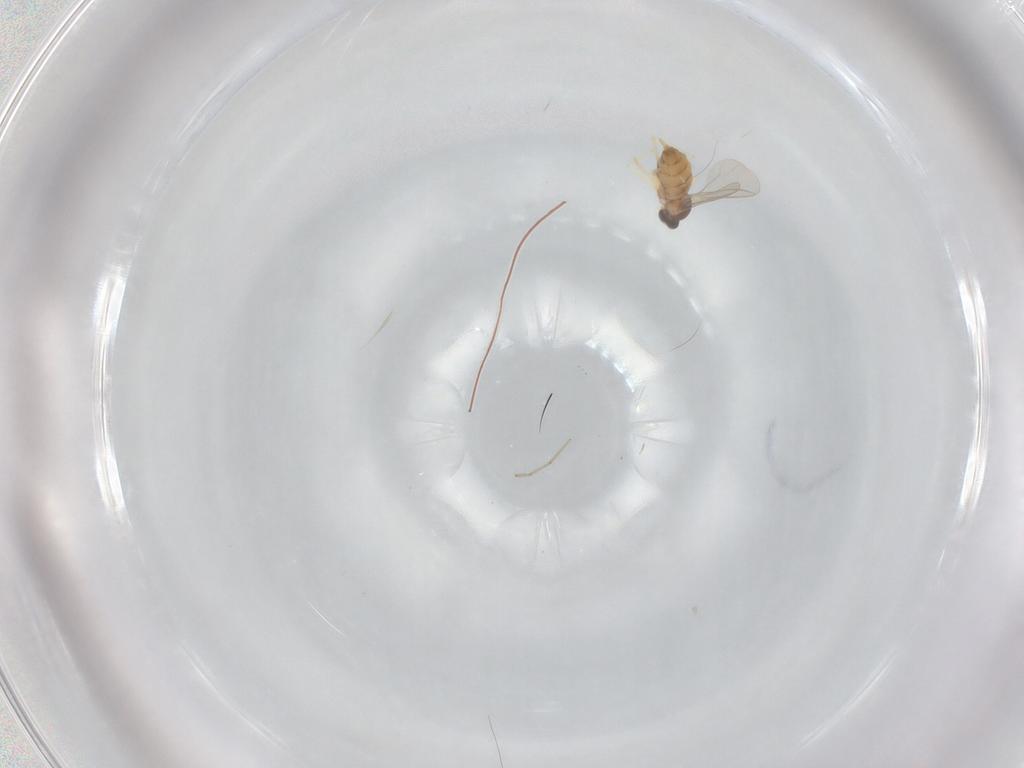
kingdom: Animalia
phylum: Arthropoda
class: Insecta
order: Diptera
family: Cecidomyiidae
